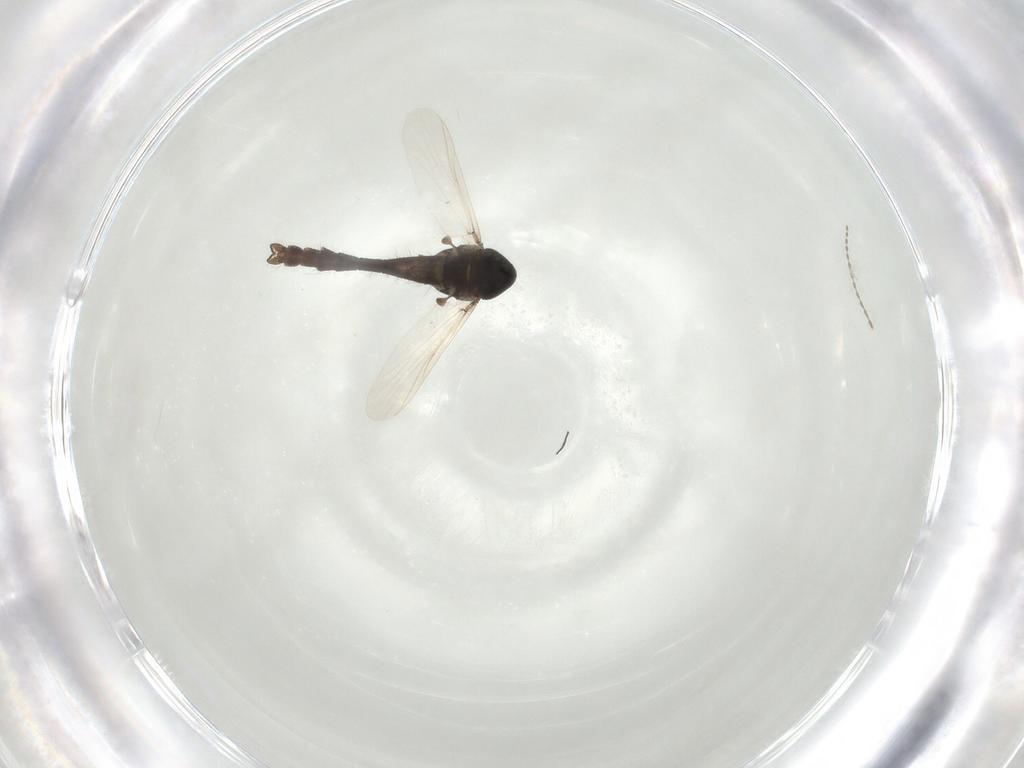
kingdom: Animalia
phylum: Arthropoda
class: Insecta
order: Diptera
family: Chironomidae
